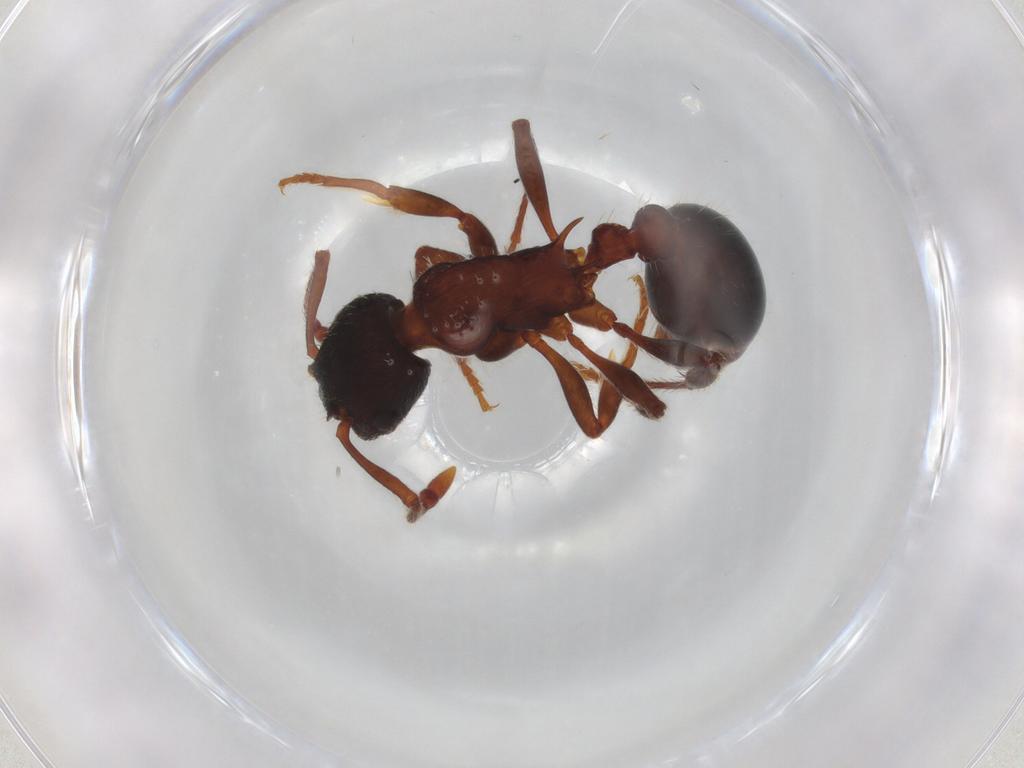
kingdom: Animalia
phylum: Arthropoda
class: Insecta
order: Hymenoptera
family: Formicidae
